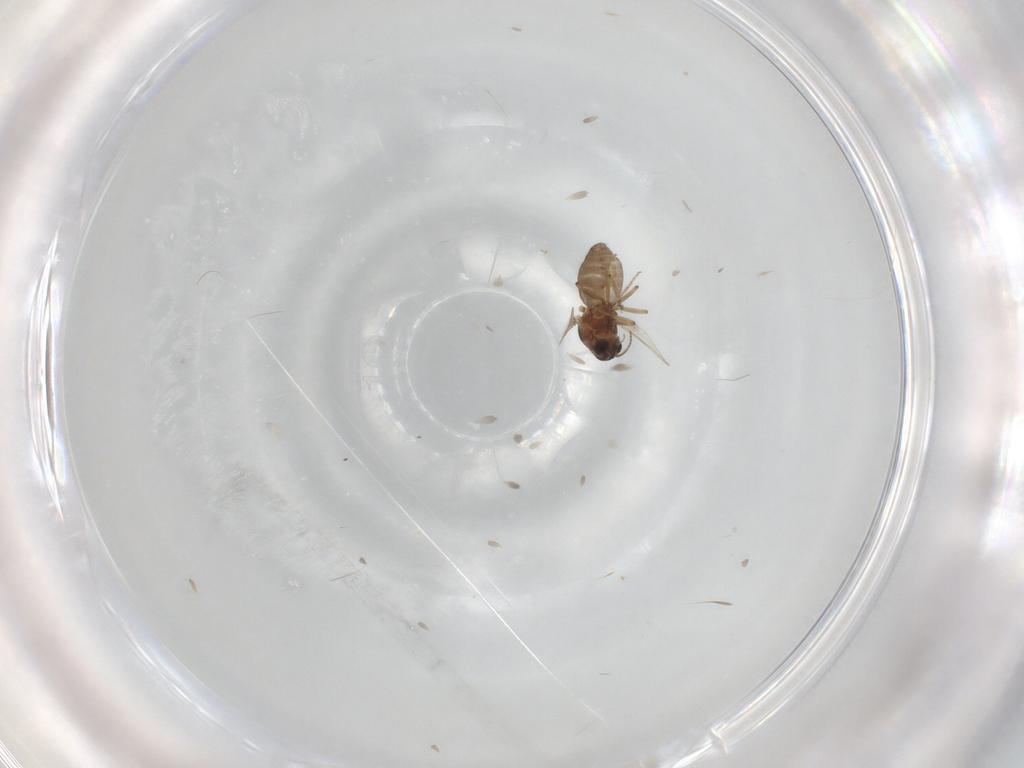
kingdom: Animalia
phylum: Arthropoda
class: Insecta
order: Diptera
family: Ceratopogonidae
